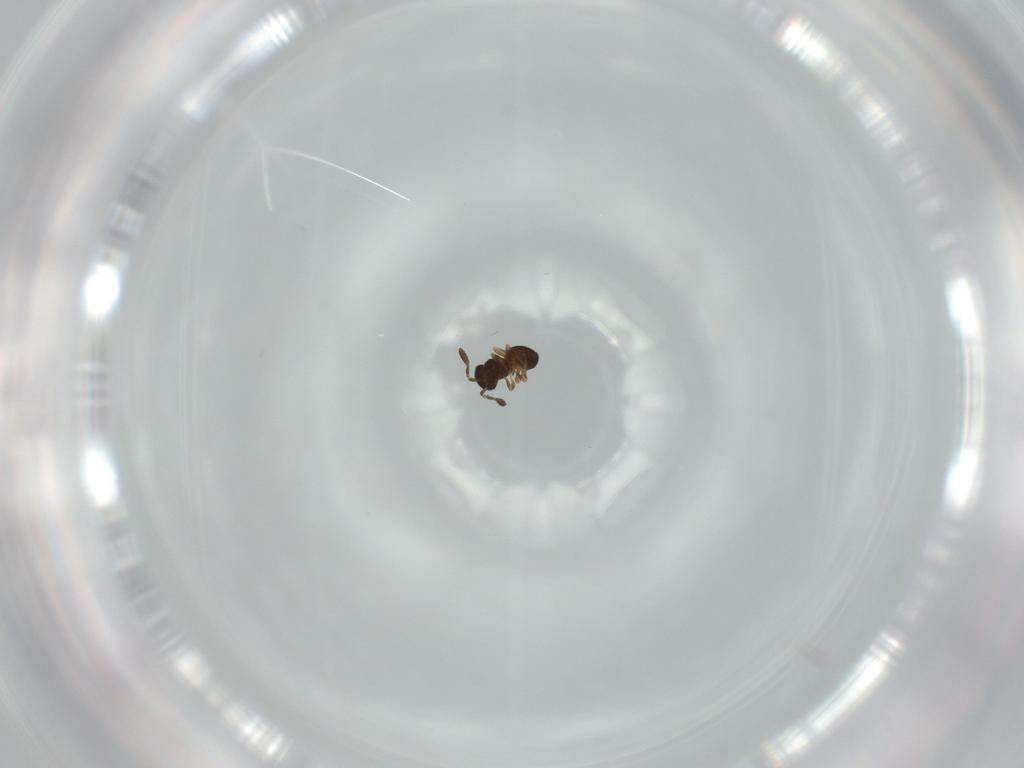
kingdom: Animalia
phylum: Arthropoda
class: Insecta
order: Hymenoptera
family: Scelionidae
